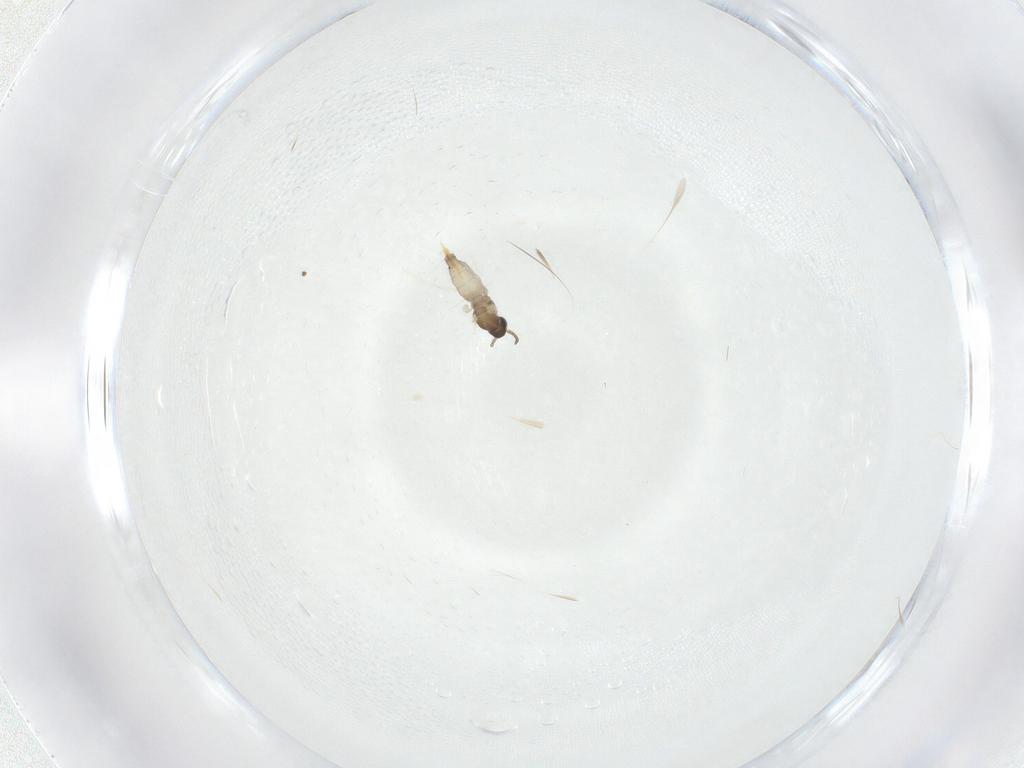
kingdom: Animalia
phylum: Arthropoda
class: Insecta
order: Diptera
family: Cecidomyiidae
